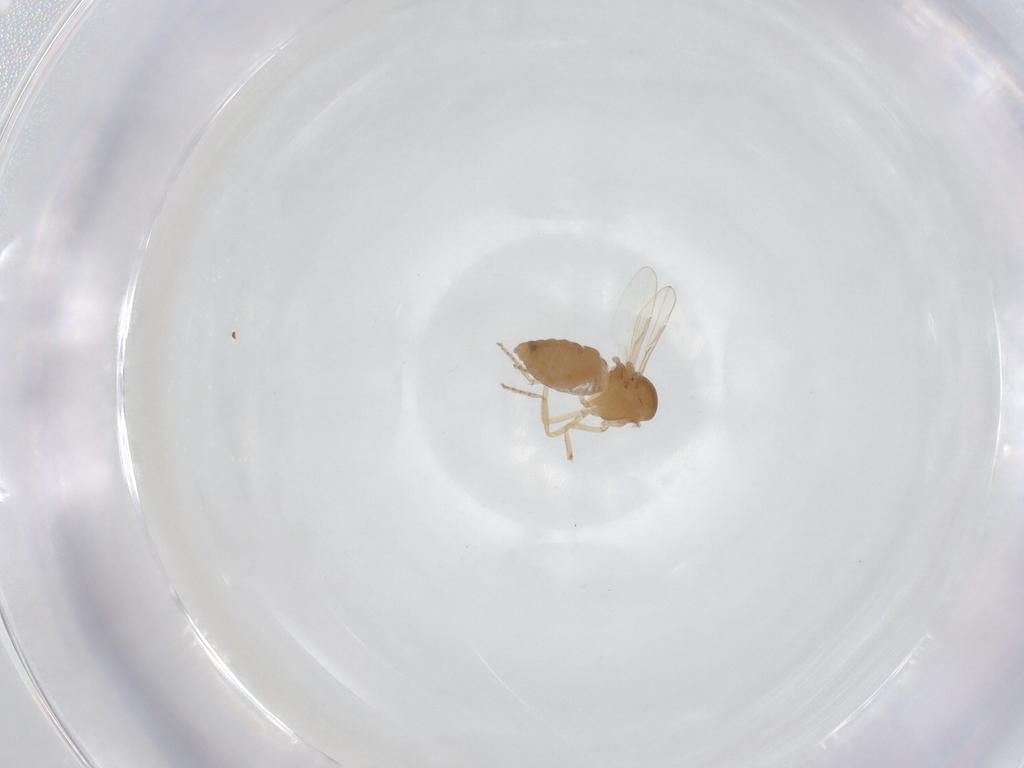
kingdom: Animalia
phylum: Arthropoda
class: Insecta
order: Diptera
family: Ceratopogonidae
